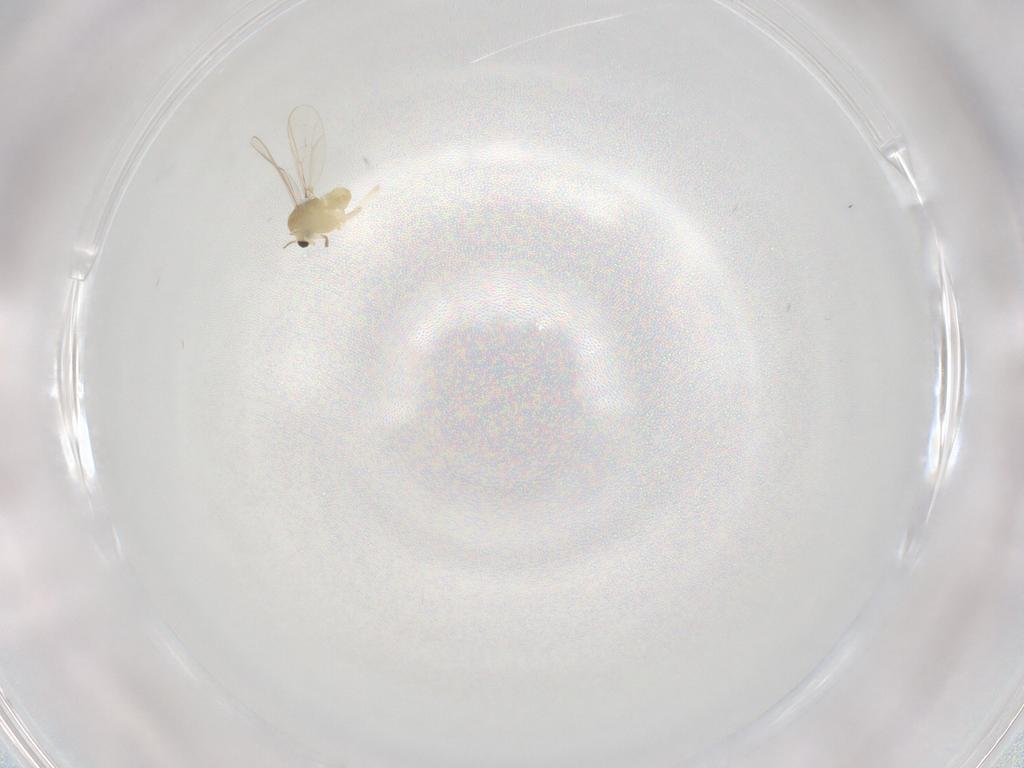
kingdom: Animalia
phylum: Arthropoda
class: Insecta
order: Diptera
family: Chironomidae
